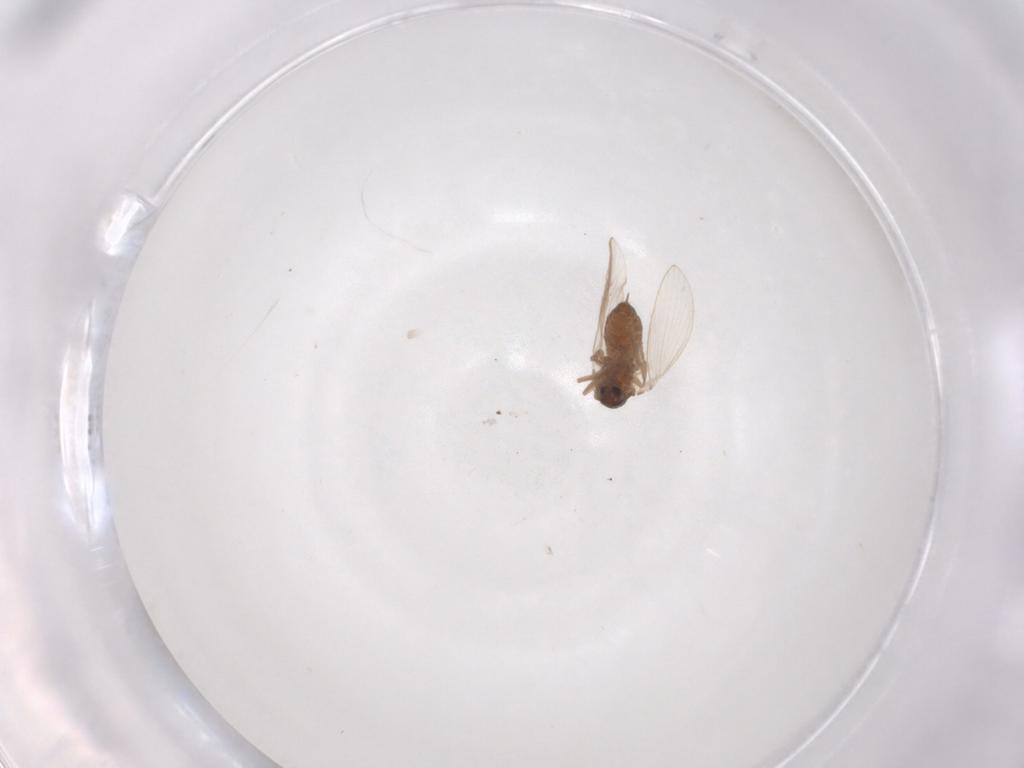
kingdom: Animalia
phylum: Arthropoda
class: Insecta
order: Diptera
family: Psychodidae
